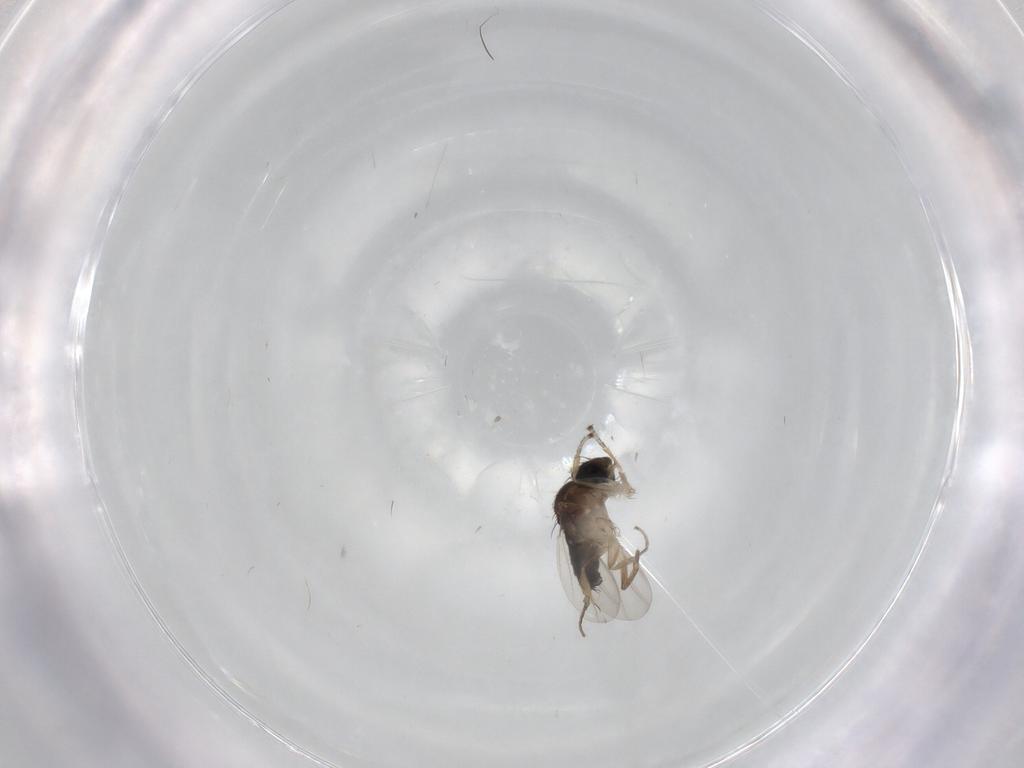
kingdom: Animalia
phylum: Arthropoda
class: Insecta
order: Diptera
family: Phoridae
